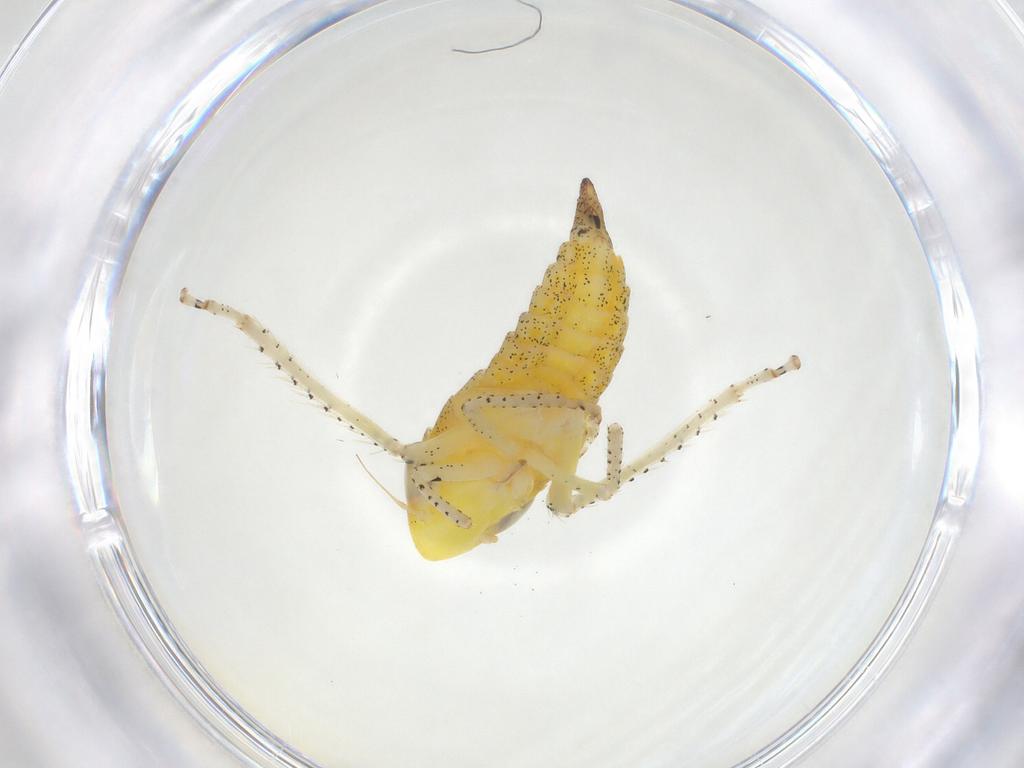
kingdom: Animalia
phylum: Arthropoda
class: Insecta
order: Hemiptera
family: Cicadellidae
